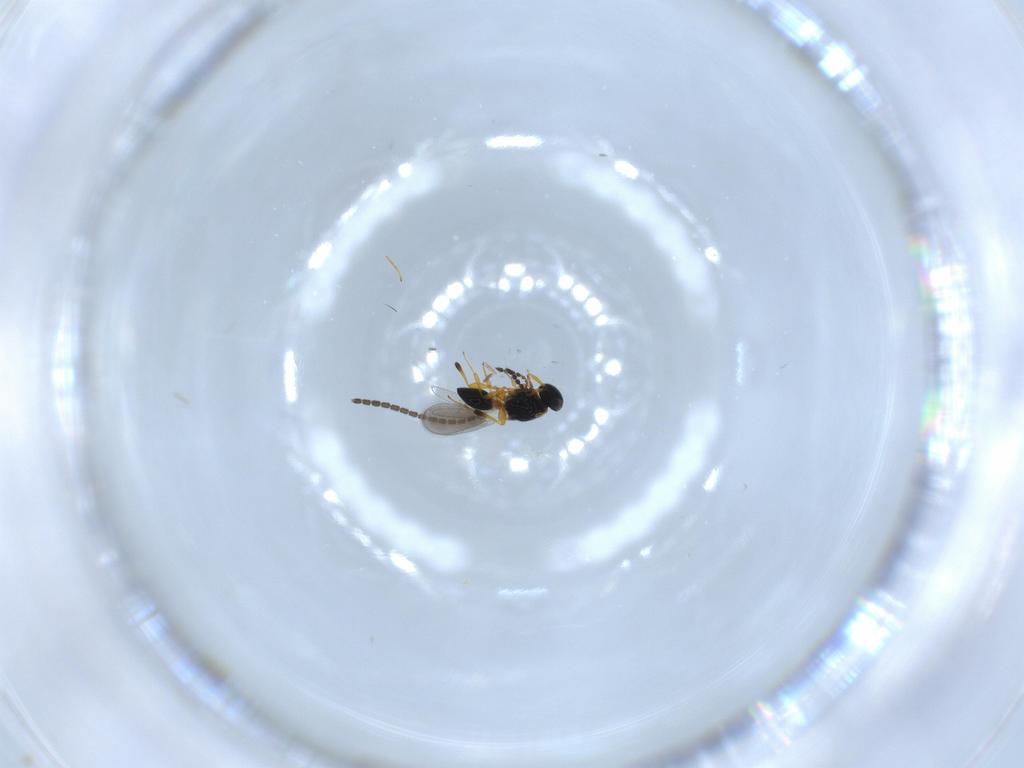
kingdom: Animalia
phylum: Arthropoda
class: Insecta
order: Hymenoptera
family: Platygastridae
